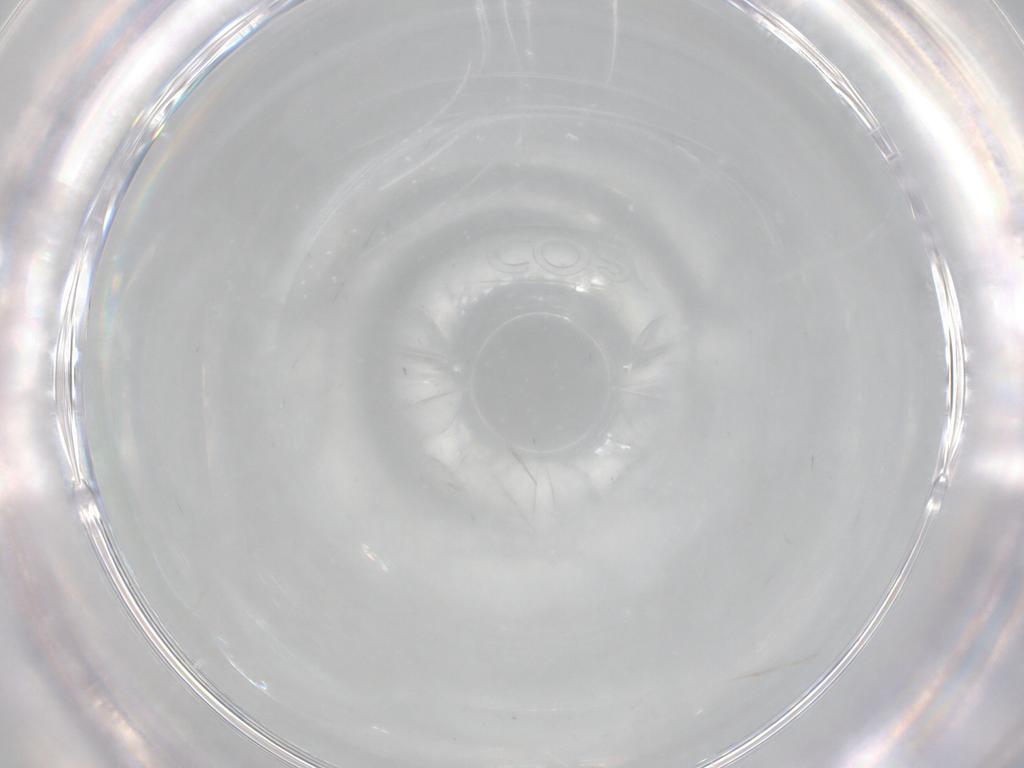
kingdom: Animalia
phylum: Arthropoda
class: Insecta
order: Diptera
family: Cecidomyiidae
